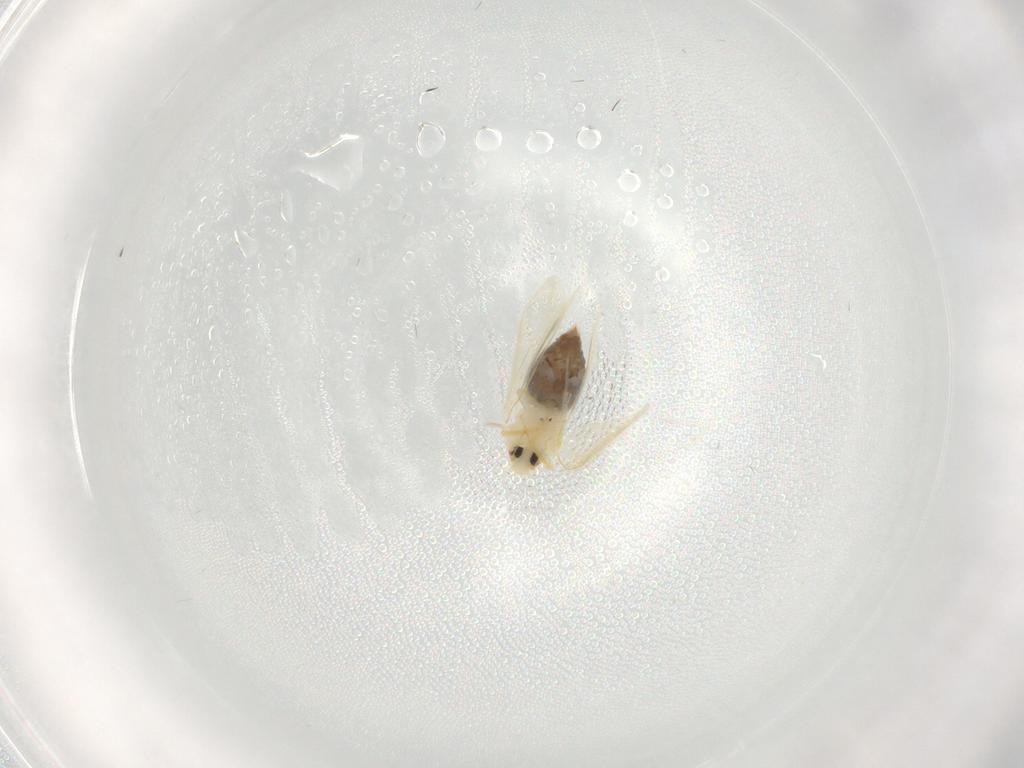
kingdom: Animalia
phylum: Arthropoda
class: Insecta
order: Hemiptera
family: Aleyrodidae
